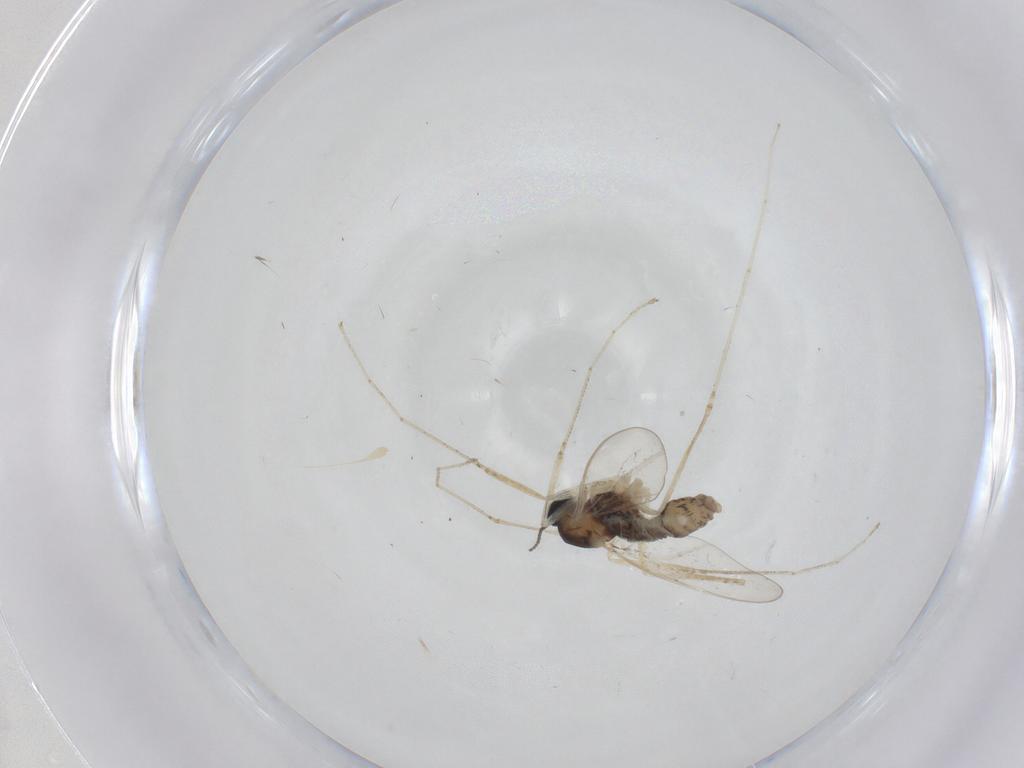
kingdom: Animalia
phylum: Arthropoda
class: Insecta
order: Diptera
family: Cecidomyiidae
